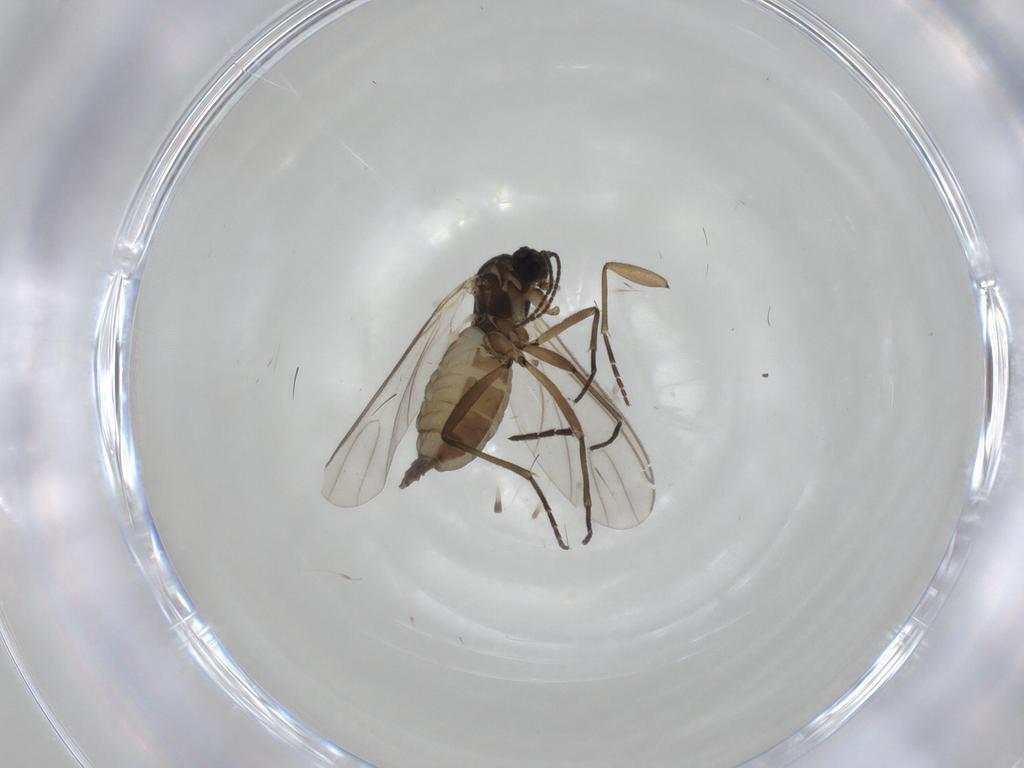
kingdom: Animalia
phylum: Arthropoda
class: Insecta
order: Diptera
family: Empididae
